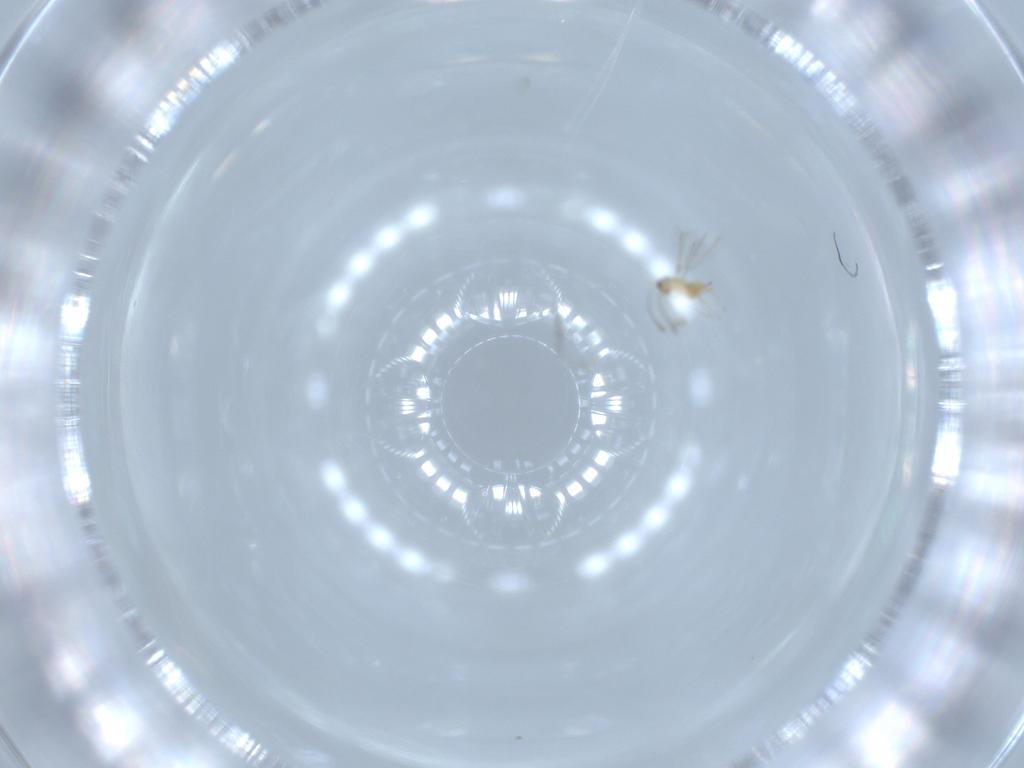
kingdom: Animalia
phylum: Arthropoda
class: Insecta
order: Hymenoptera
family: Mymaridae
